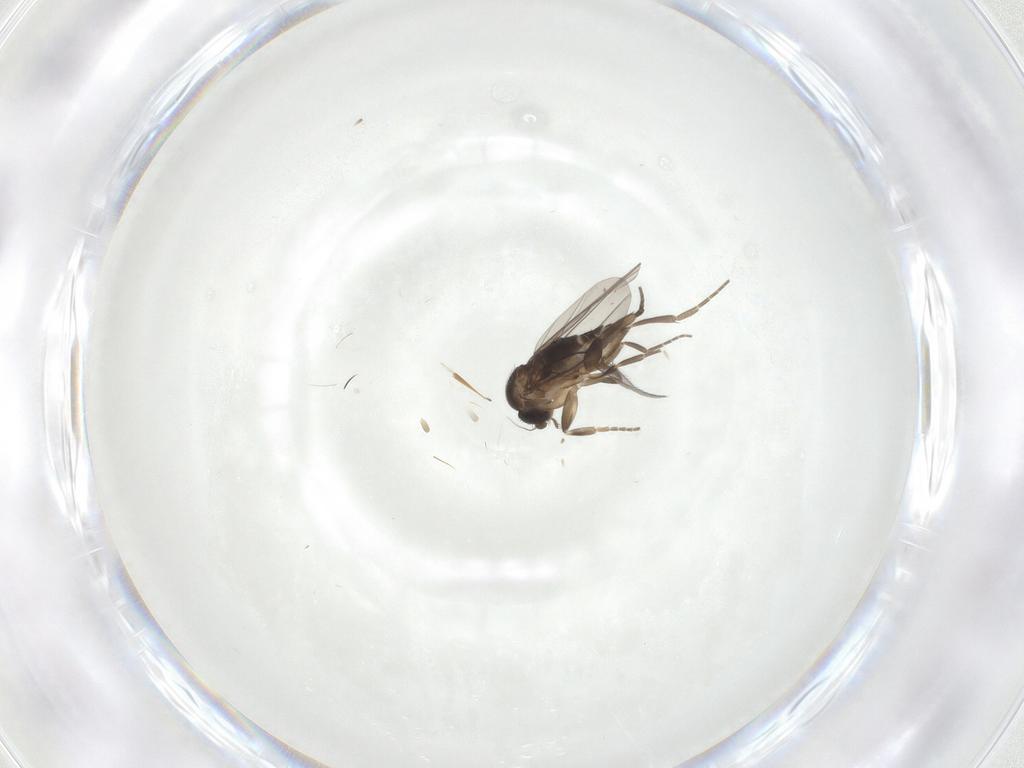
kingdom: Animalia
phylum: Arthropoda
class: Insecta
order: Diptera
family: Phoridae
